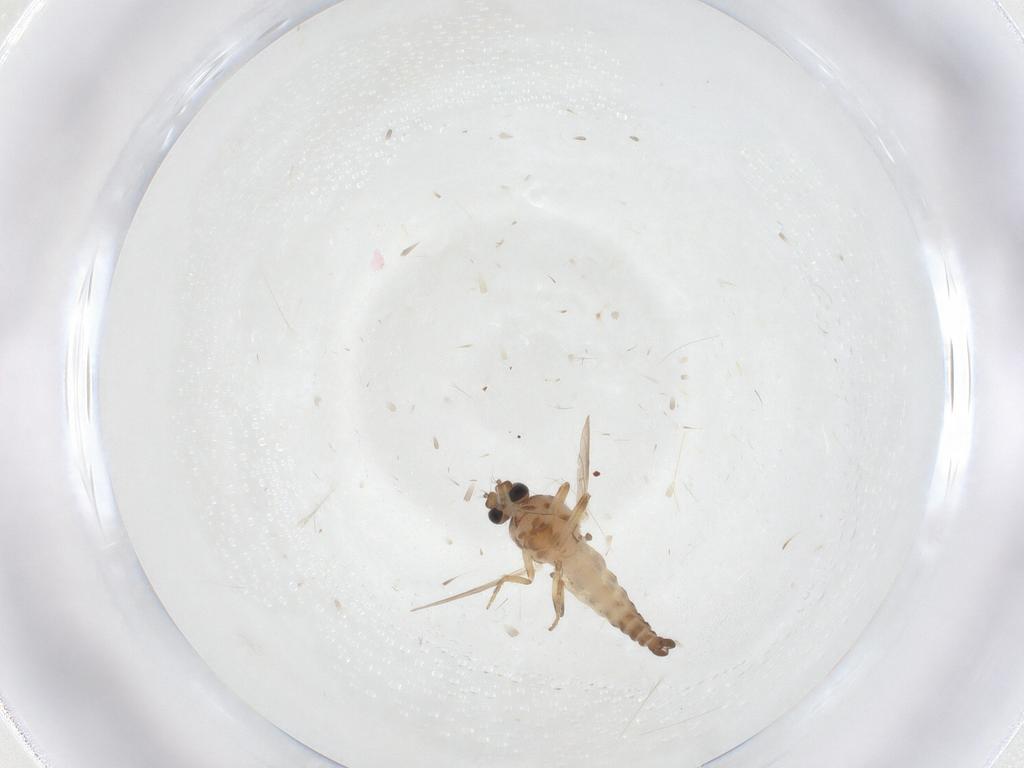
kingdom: Animalia
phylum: Arthropoda
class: Insecta
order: Diptera
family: Ceratopogonidae
